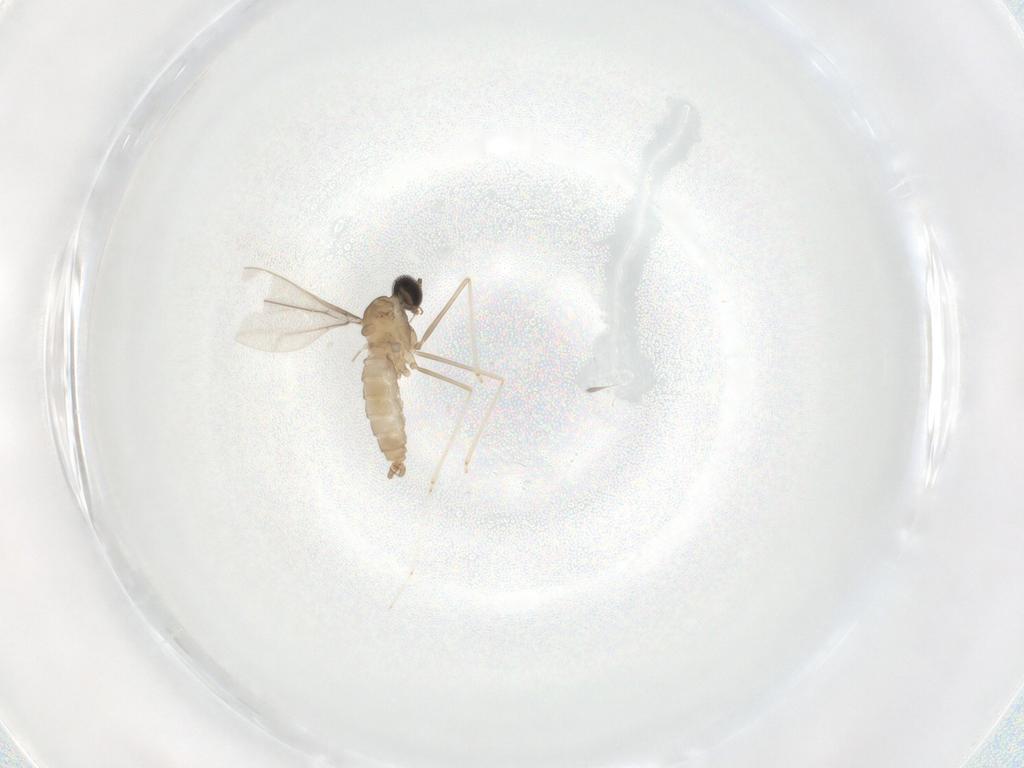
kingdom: Animalia
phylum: Arthropoda
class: Insecta
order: Diptera
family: Cecidomyiidae
